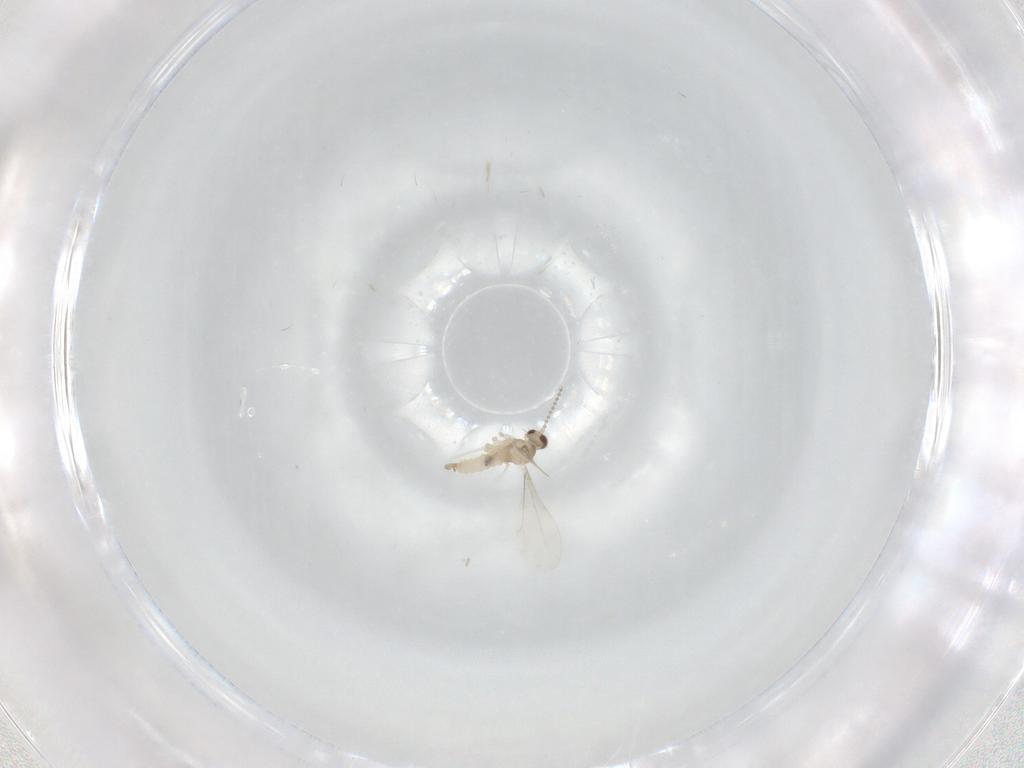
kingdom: Animalia
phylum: Arthropoda
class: Insecta
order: Diptera
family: Cecidomyiidae
